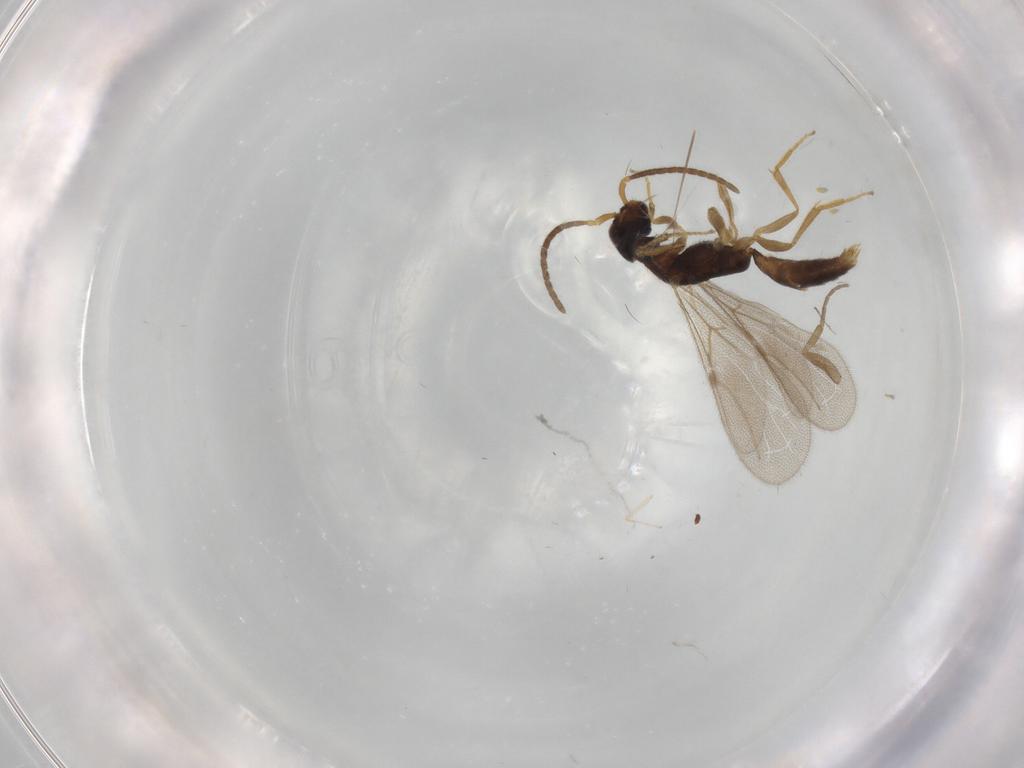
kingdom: Animalia
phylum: Arthropoda
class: Insecta
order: Hymenoptera
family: Bethylidae
